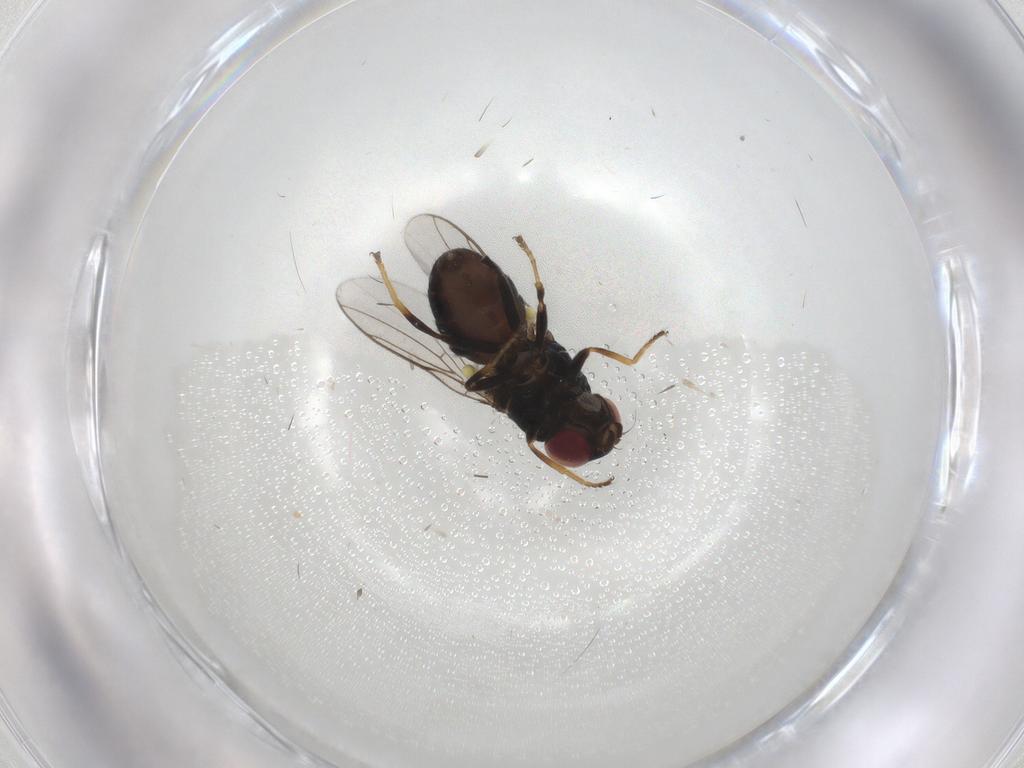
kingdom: Animalia
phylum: Arthropoda
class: Insecta
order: Diptera
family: Chloropidae
